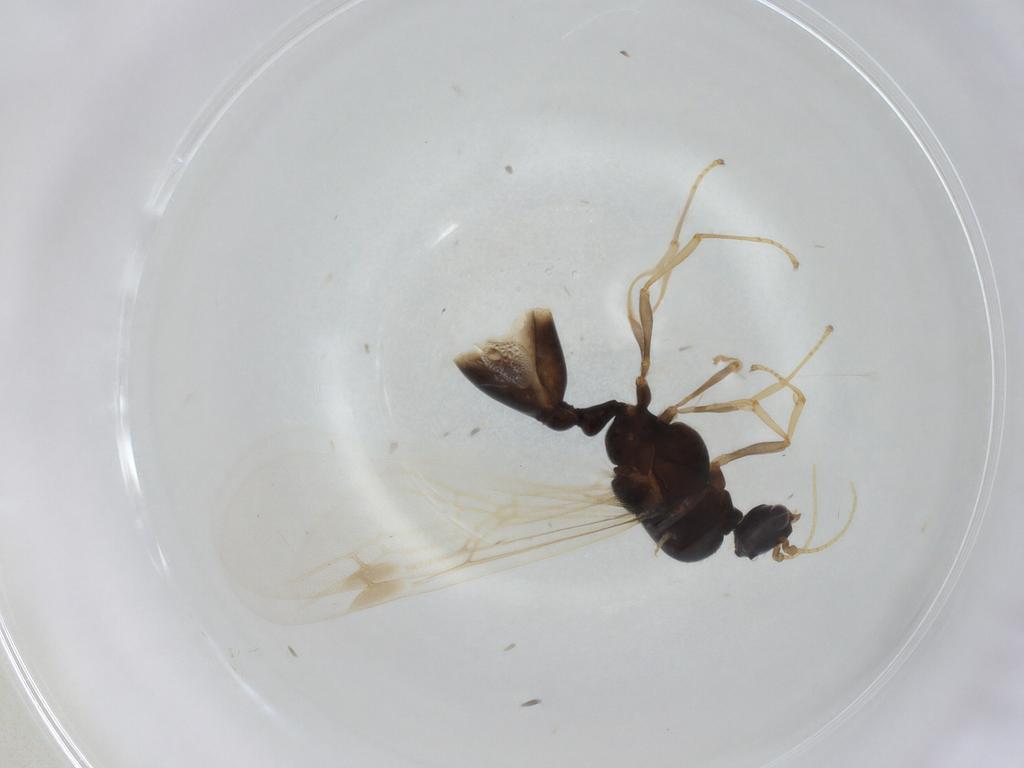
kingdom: Animalia
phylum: Arthropoda
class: Insecta
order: Hymenoptera
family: Formicidae
